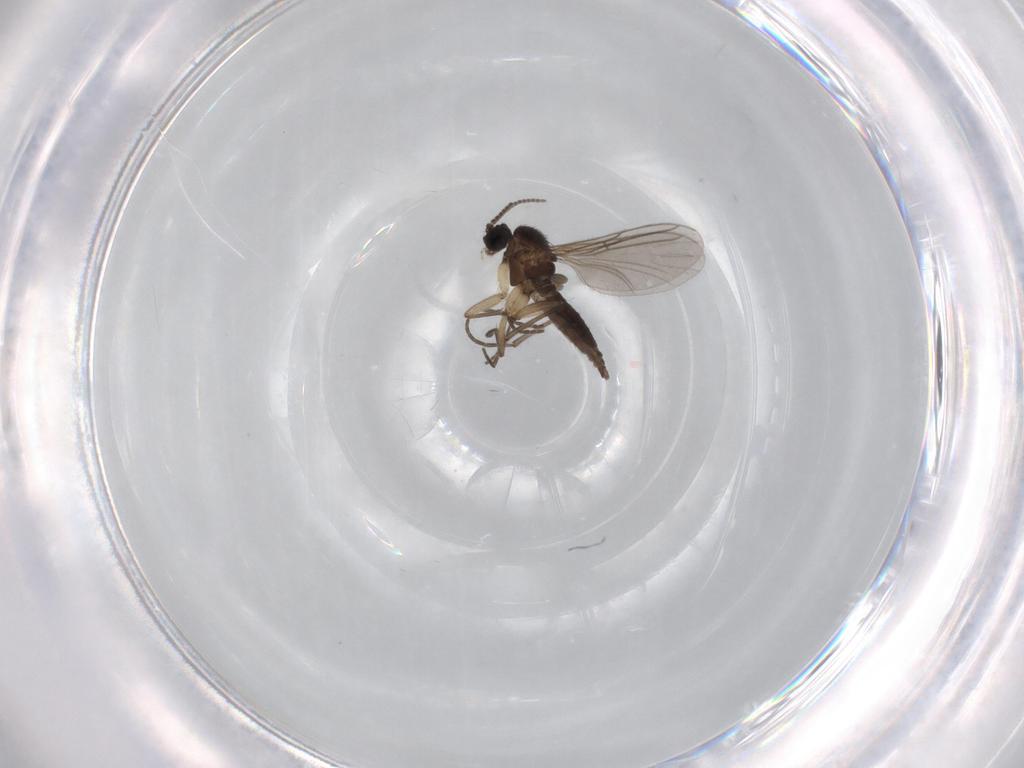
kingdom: Animalia
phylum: Arthropoda
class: Insecta
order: Diptera
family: Sciaridae
